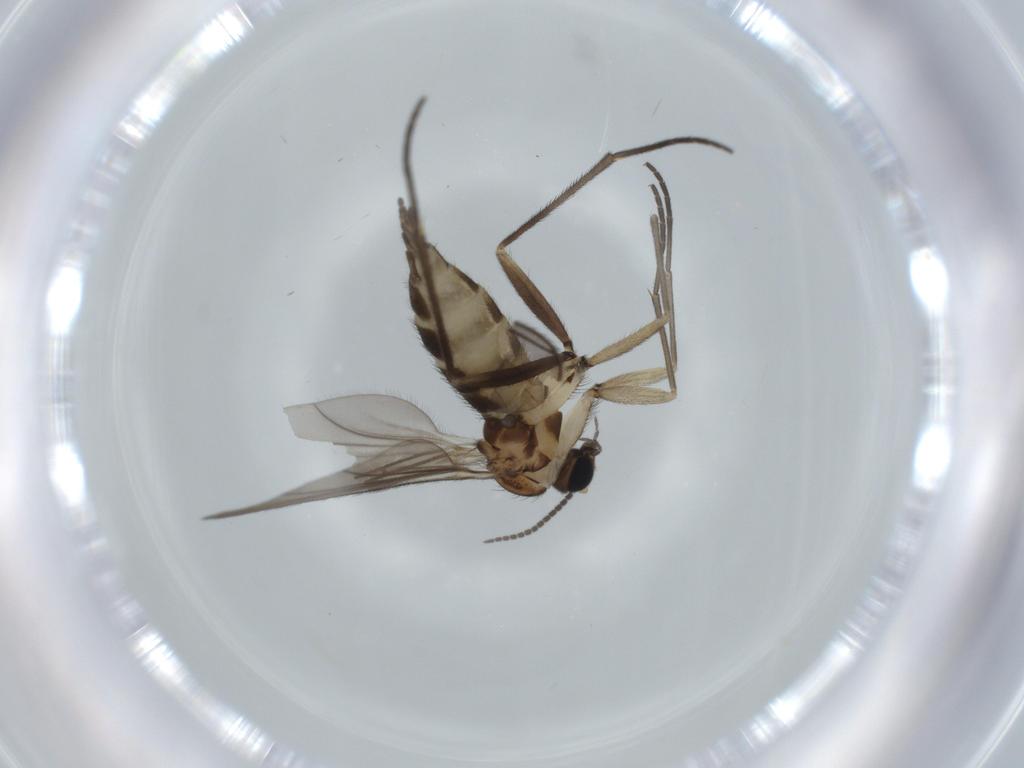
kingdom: Animalia
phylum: Arthropoda
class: Insecta
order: Diptera
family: Sciaridae
